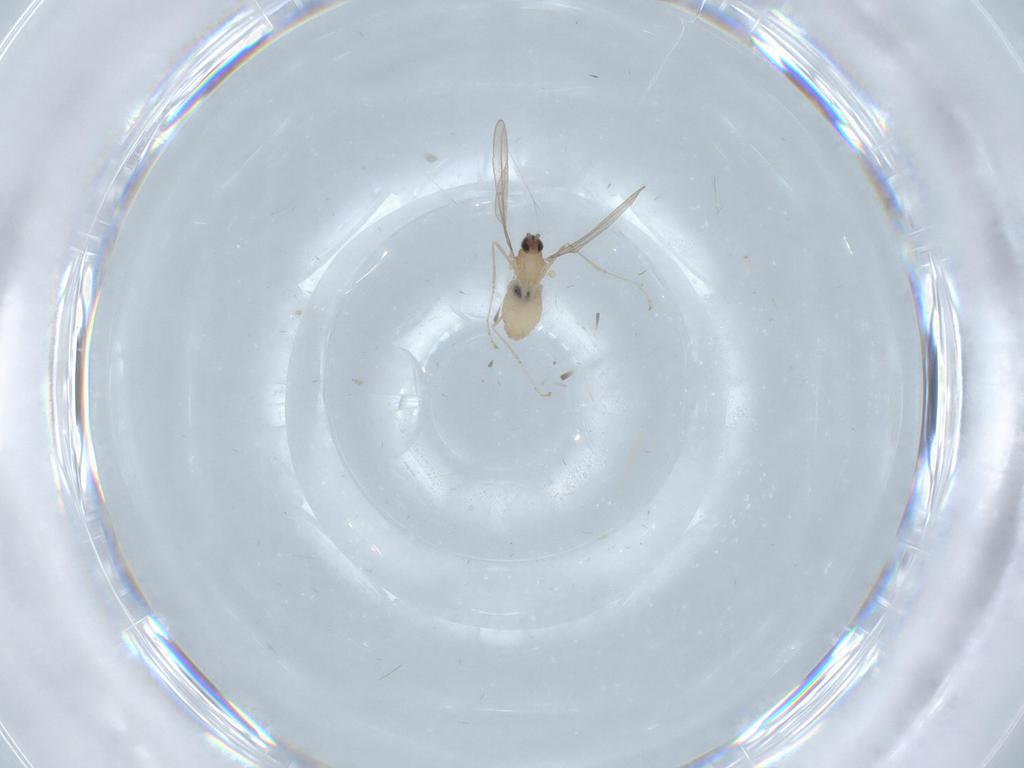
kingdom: Animalia
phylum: Arthropoda
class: Insecta
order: Diptera
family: Cecidomyiidae
